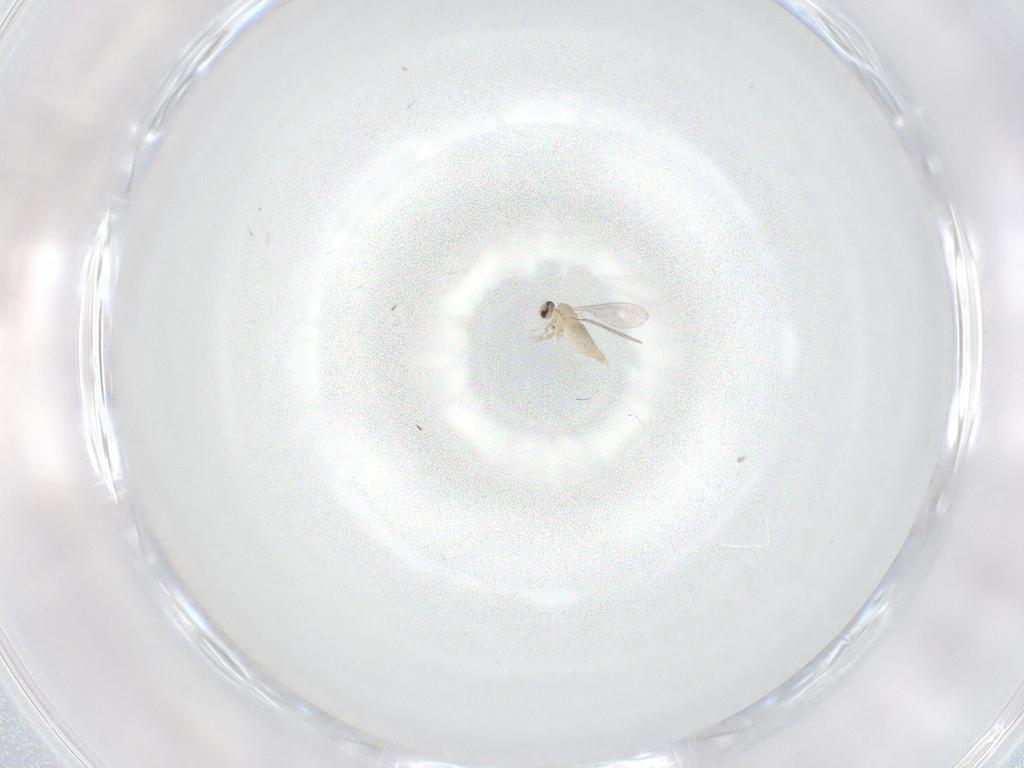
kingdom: Animalia
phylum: Arthropoda
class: Insecta
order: Diptera
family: Cecidomyiidae
